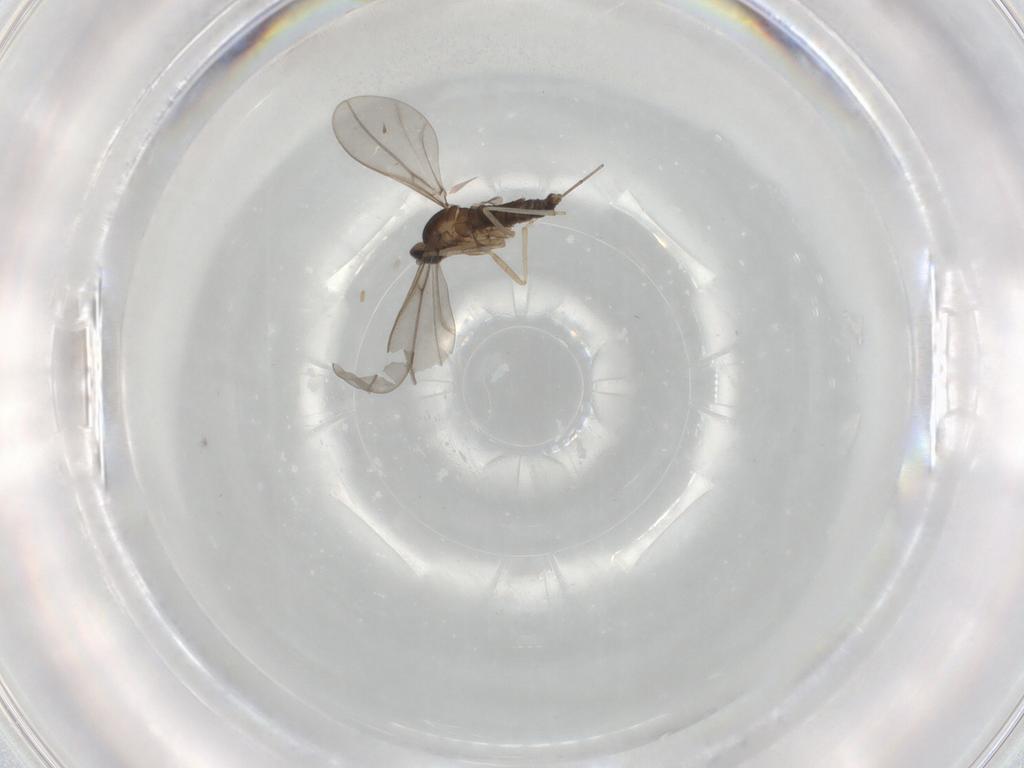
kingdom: Animalia
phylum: Arthropoda
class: Insecta
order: Diptera
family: Cecidomyiidae
